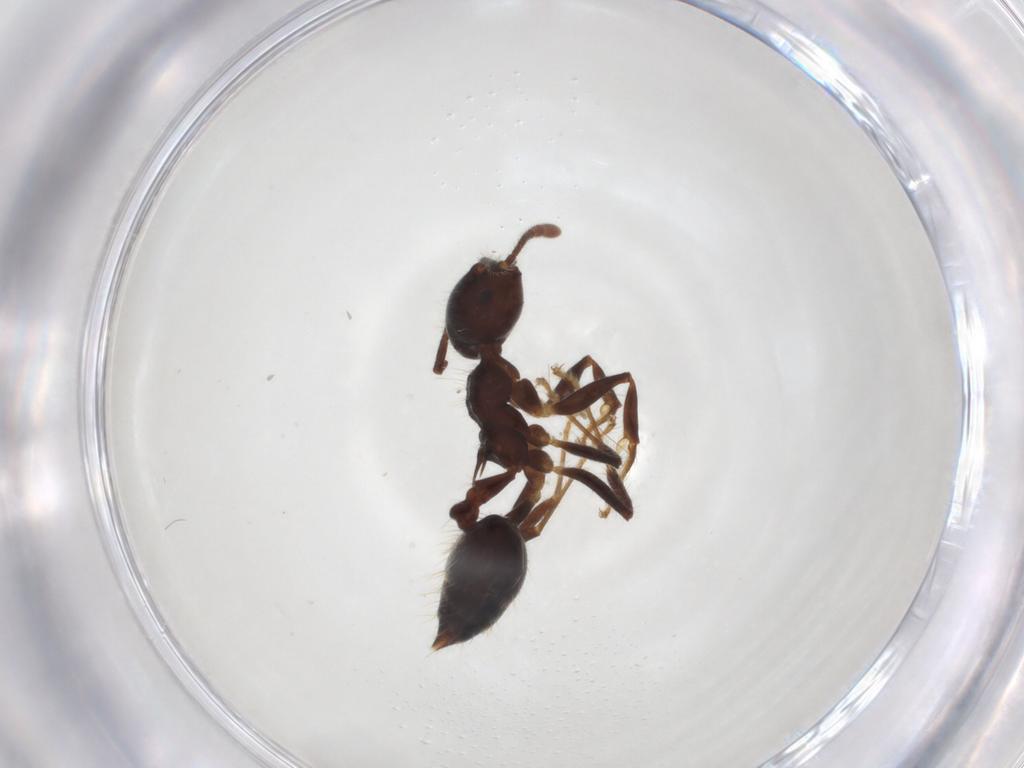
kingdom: Animalia
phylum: Arthropoda
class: Insecta
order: Hymenoptera
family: Formicidae
